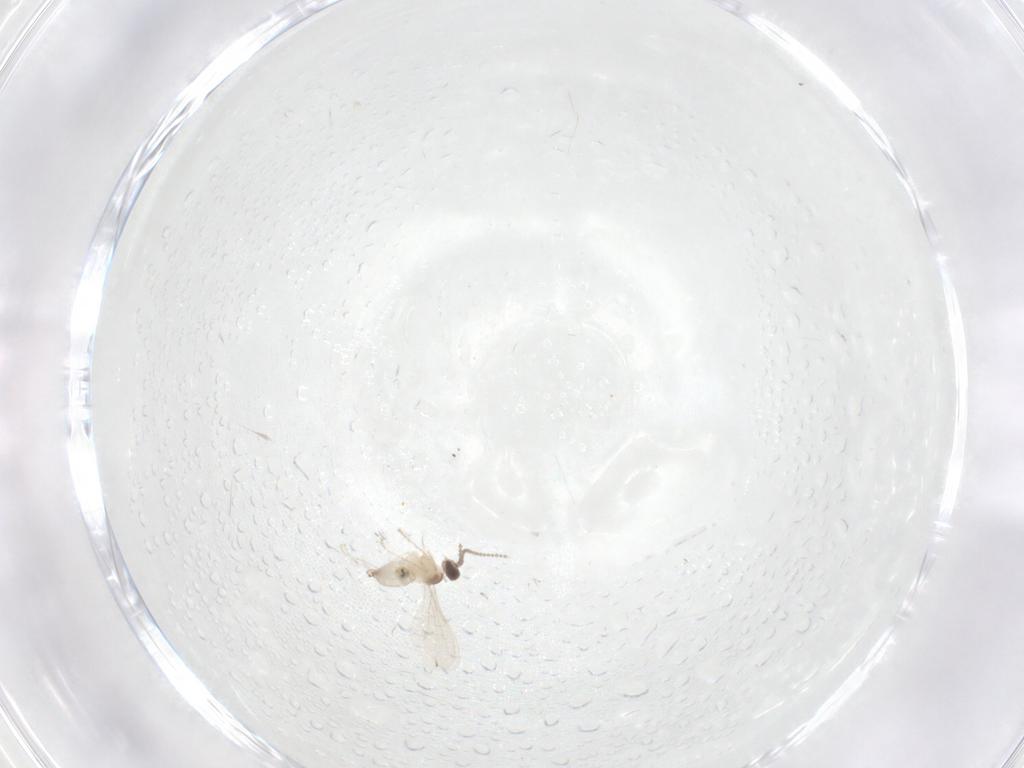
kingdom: Animalia
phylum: Arthropoda
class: Insecta
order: Diptera
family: Cecidomyiidae
